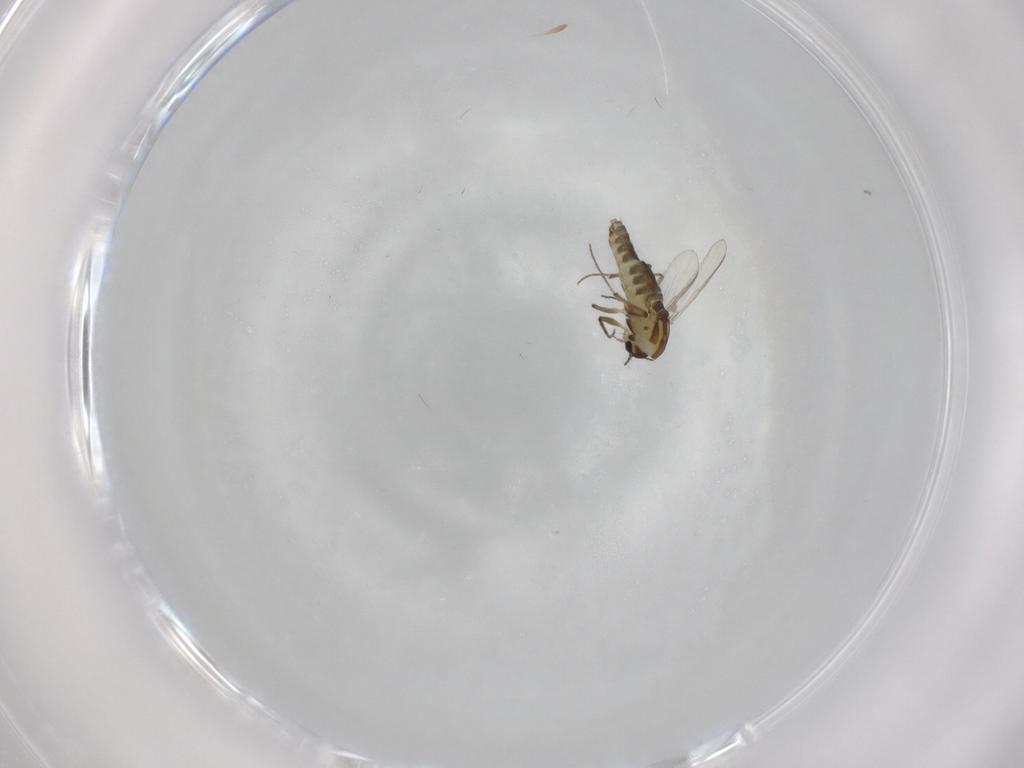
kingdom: Animalia
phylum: Arthropoda
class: Insecta
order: Diptera
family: Chironomidae
